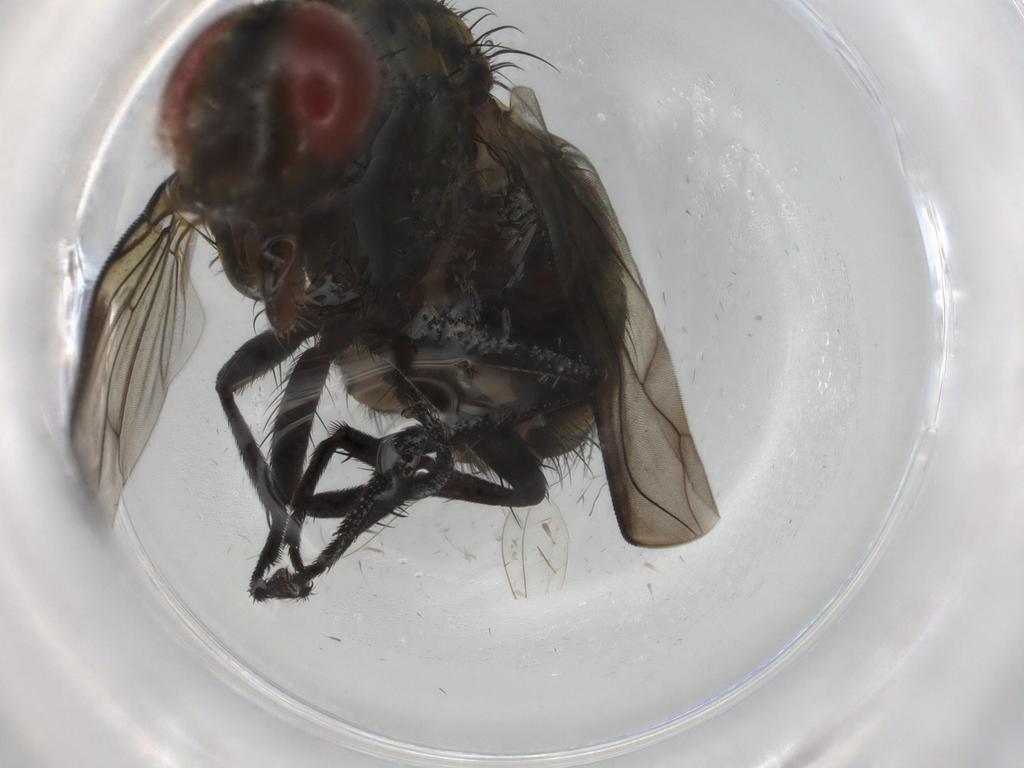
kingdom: Animalia
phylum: Arthropoda
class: Insecta
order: Diptera
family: Sarcophagidae
